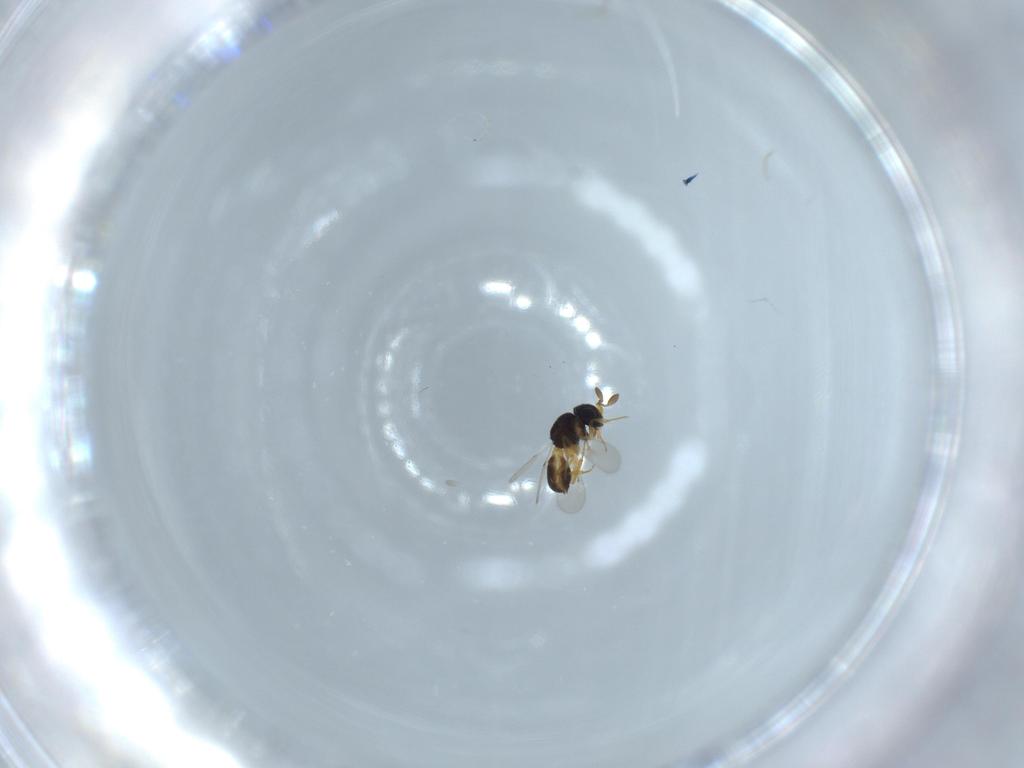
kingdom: Animalia
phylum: Arthropoda
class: Insecta
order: Hymenoptera
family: Scelionidae
